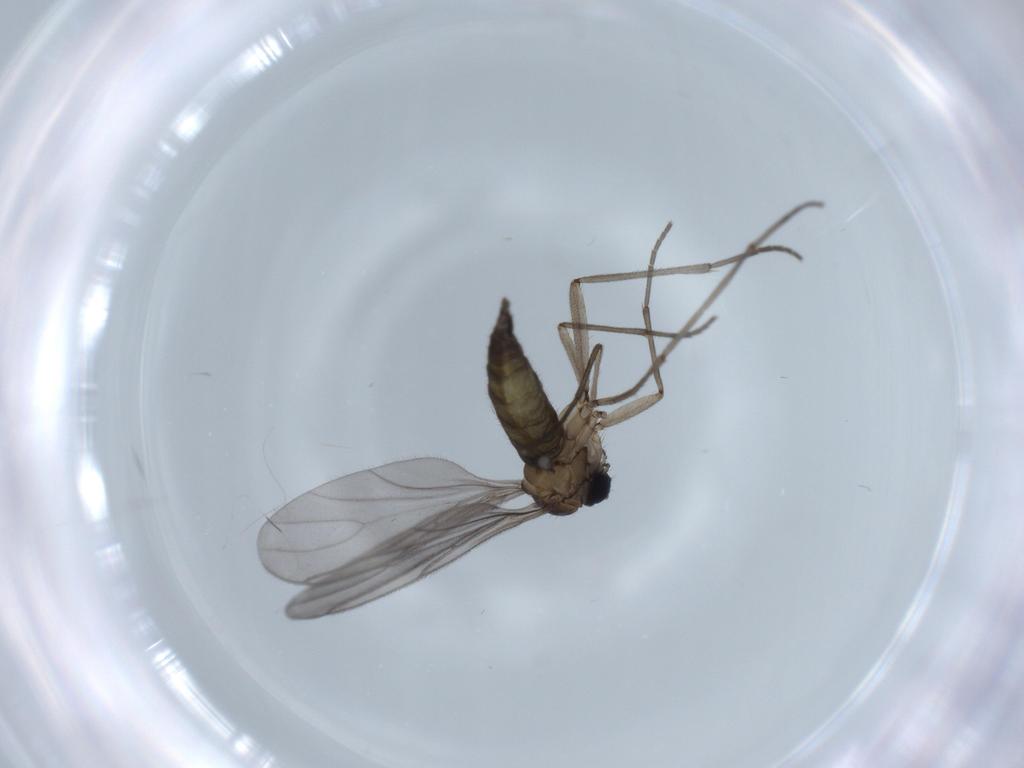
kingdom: Animalia
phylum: Arthropoda
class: Insecta
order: Diptera
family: Sciaridae
